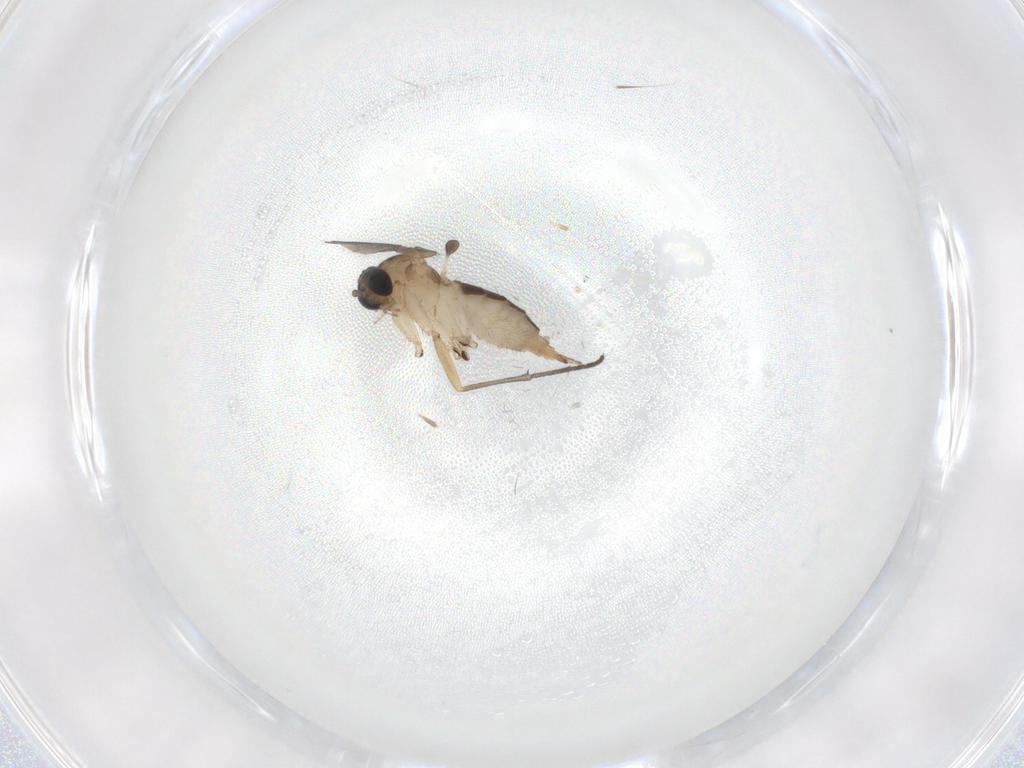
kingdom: Animalia
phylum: Arthropoda
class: Insecta
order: Diptera
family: Sciaridae
